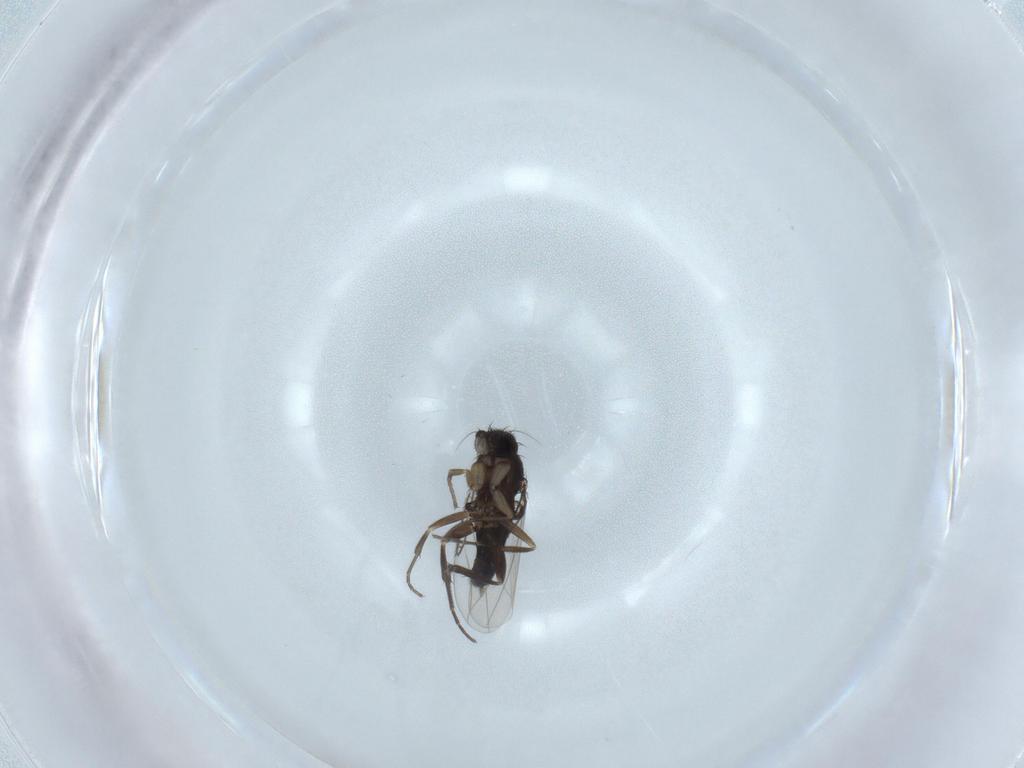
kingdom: Animalia
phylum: Arthropoda
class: Insecta
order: Diptera
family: Phoridae
